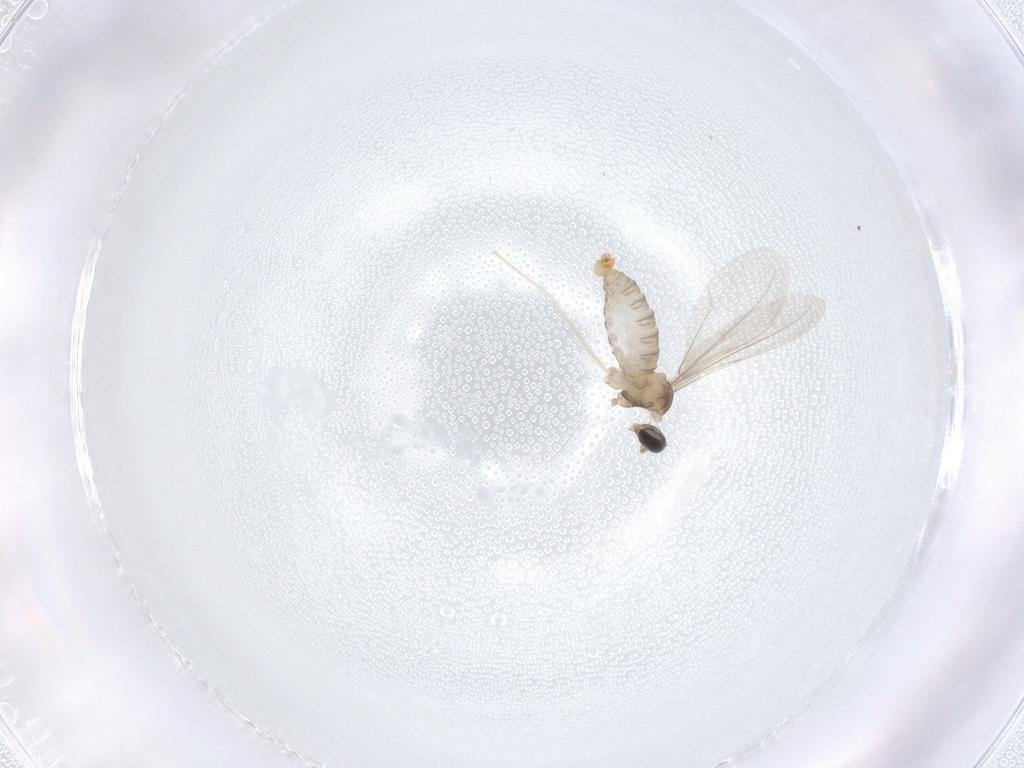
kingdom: Animalia
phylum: Arthropoda
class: Insecta
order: Diptera
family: Cecidomyiidae
